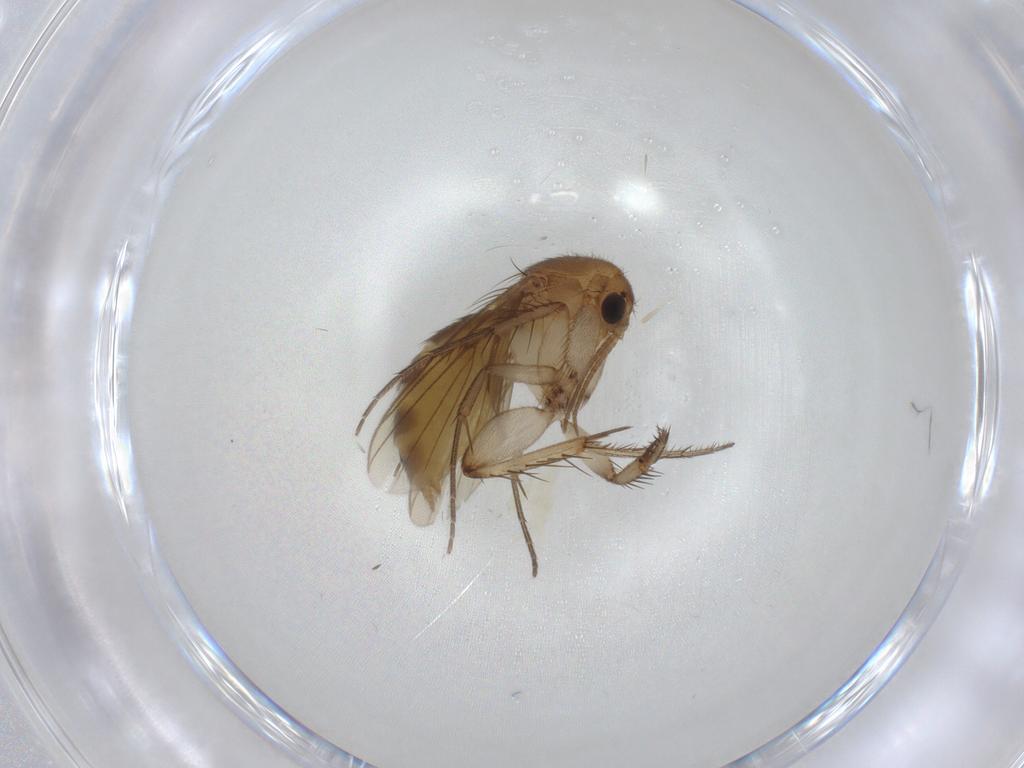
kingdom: Animalia
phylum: Arthropoda
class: Insecta
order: Diptera
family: Mycetophilidae
